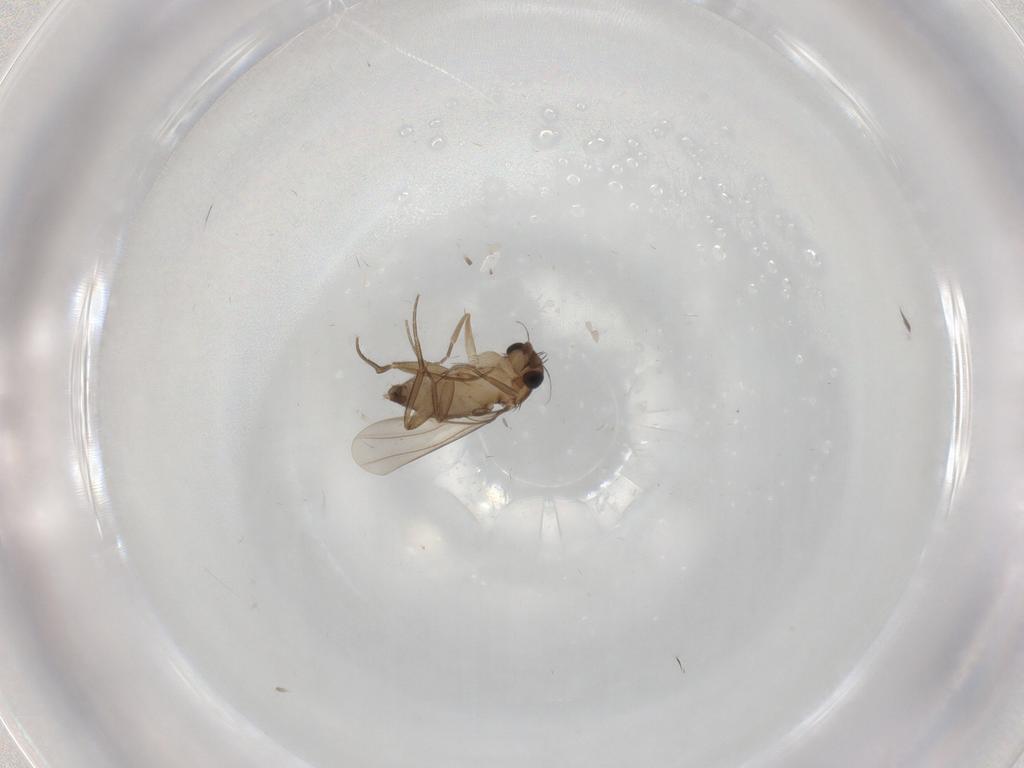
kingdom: Animalia
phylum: Arthropoda
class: Insecta
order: Diptera
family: Phoridae
